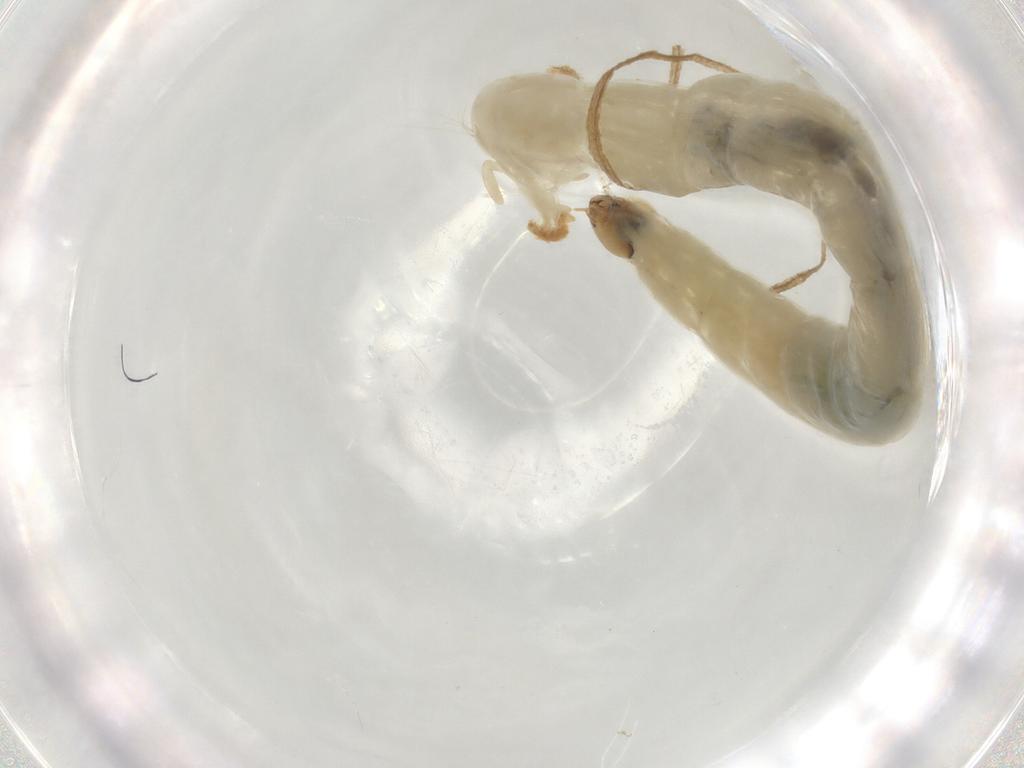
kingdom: Animalia
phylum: Arthropoda
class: Insecta
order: Diptera
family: Chironomidae
